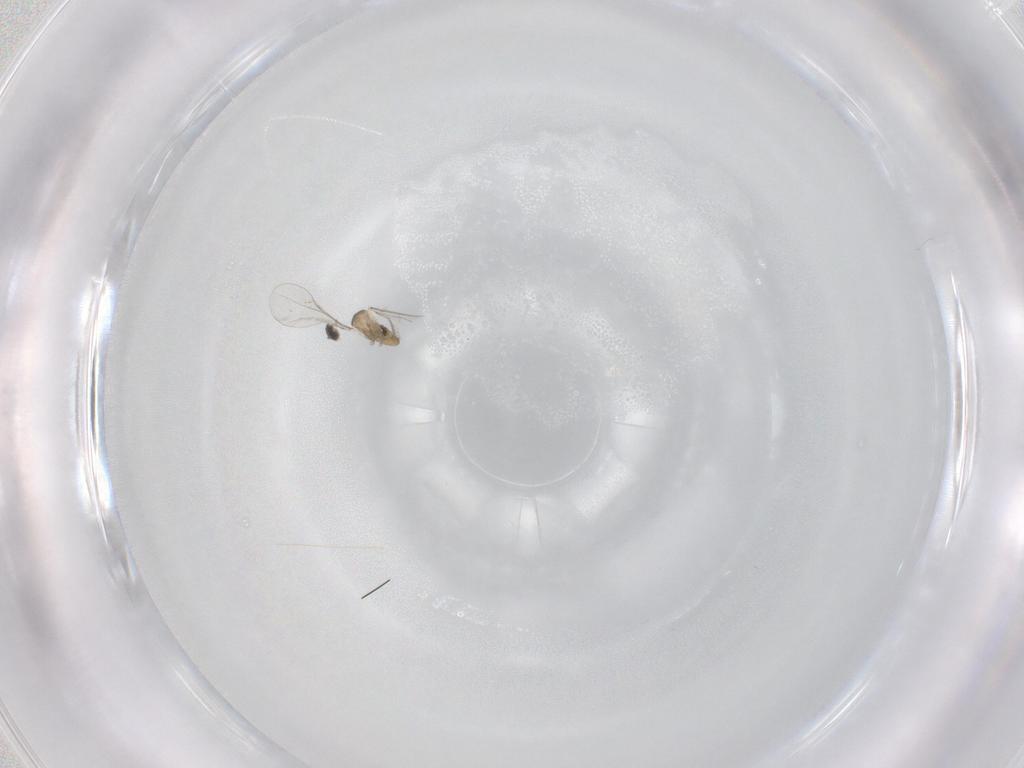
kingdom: Animalia
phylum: Arthropoda
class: Insecta
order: Diptera
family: Cecidomyiidae
